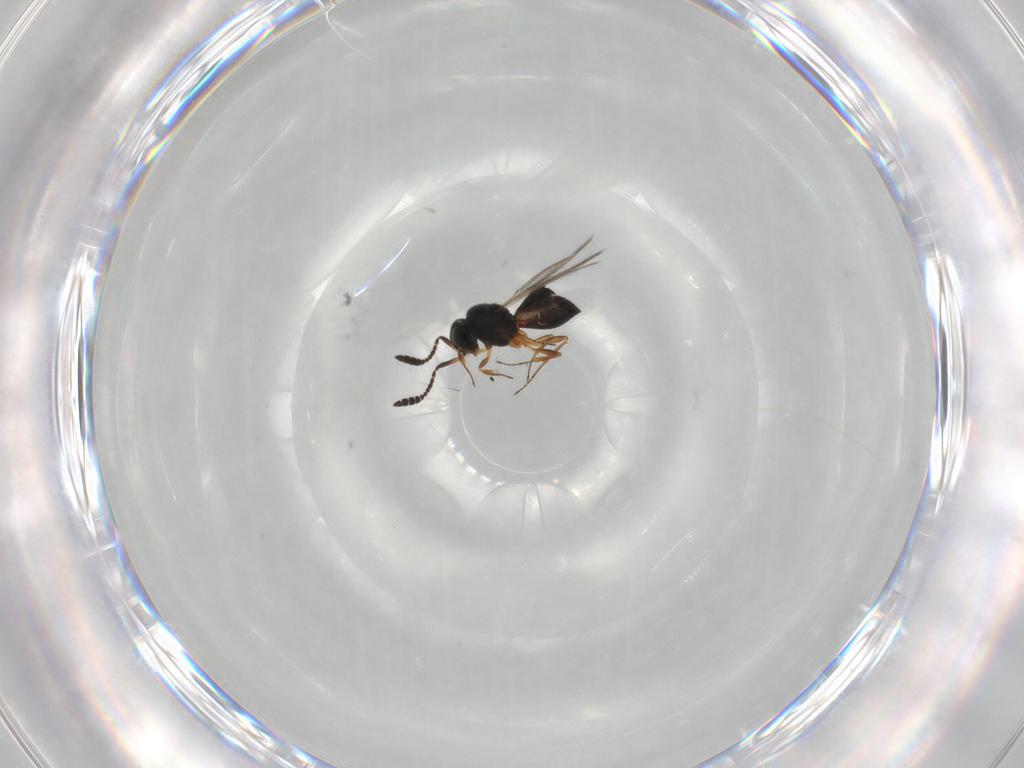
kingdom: Animalia
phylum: Arthropoda
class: Insecta
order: Hymenoptera
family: Scelionidae
